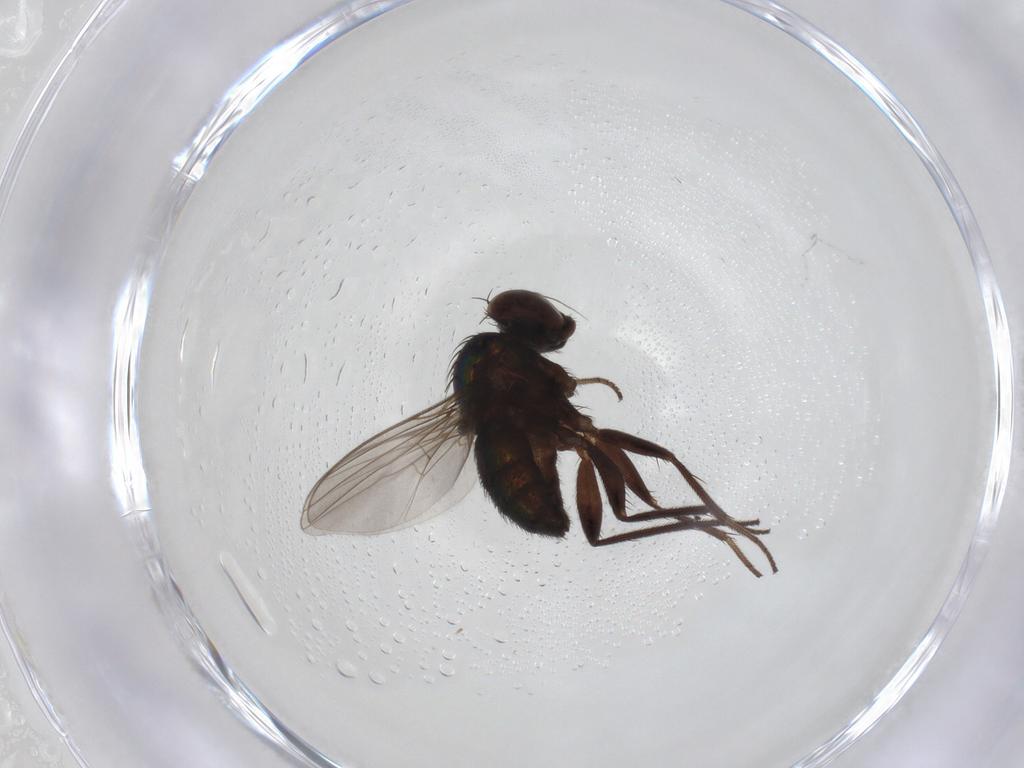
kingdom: Animalia
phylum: Arthropoda
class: Insecta
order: Diptera
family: Dolichopodidae
